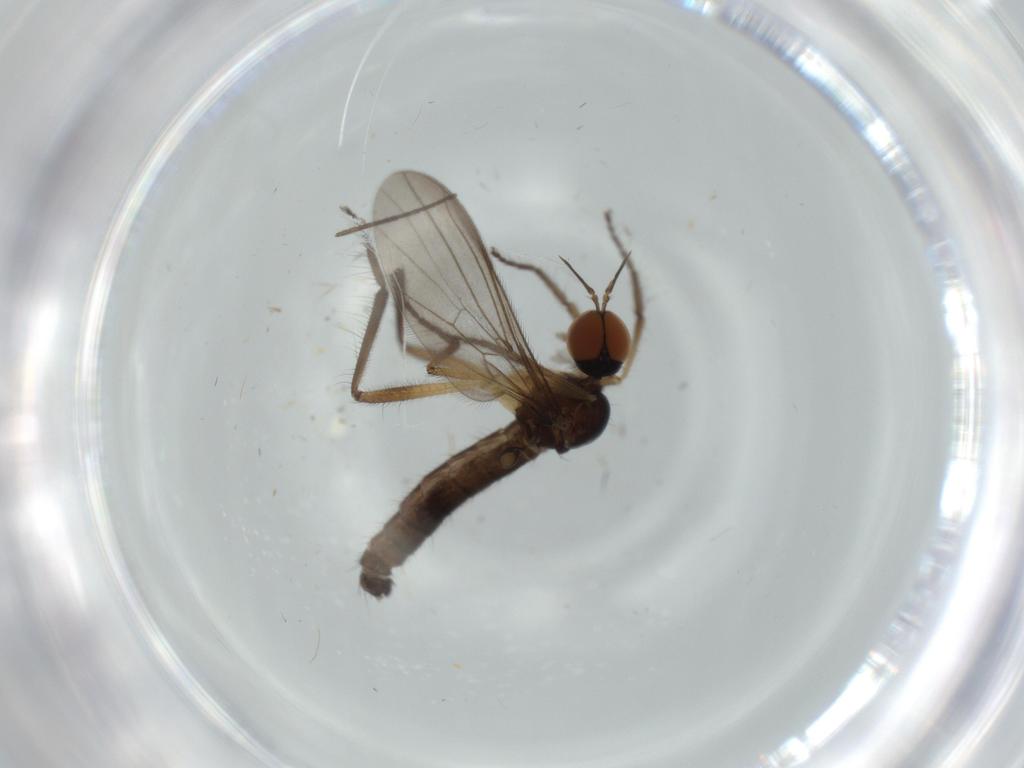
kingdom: Animalia
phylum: Arthropoda
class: Insecta
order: Diptera
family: Empididae
